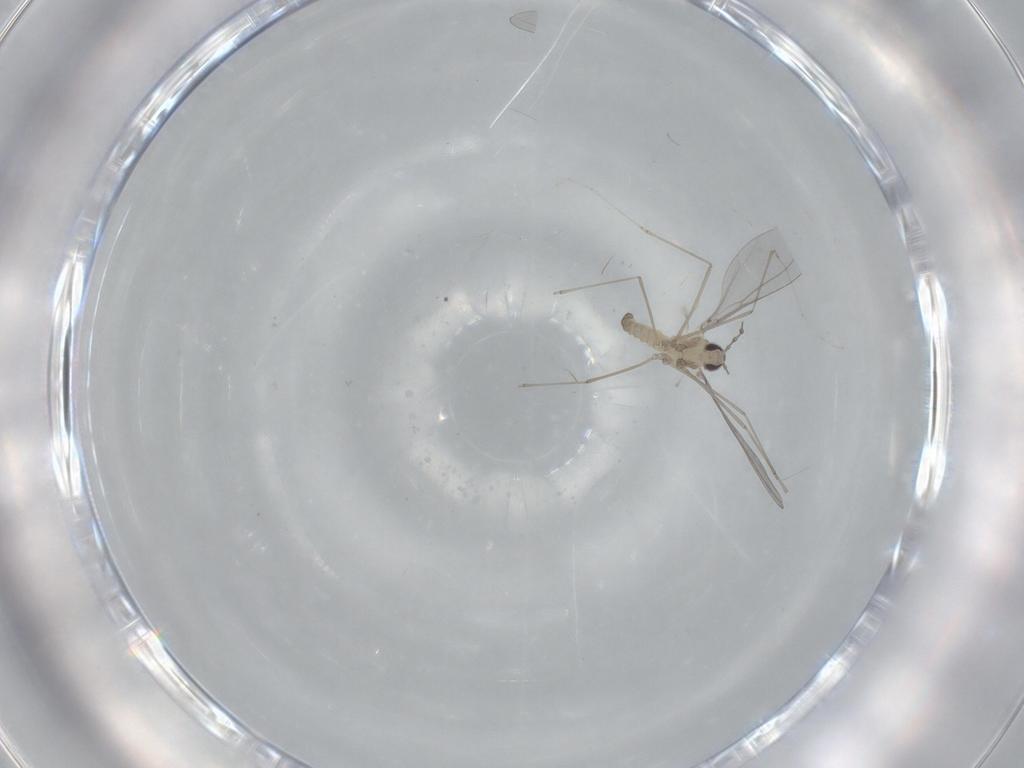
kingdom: Animalia
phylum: Arthropoda
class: Insecta
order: Diptera
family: Cecidomyiidae
